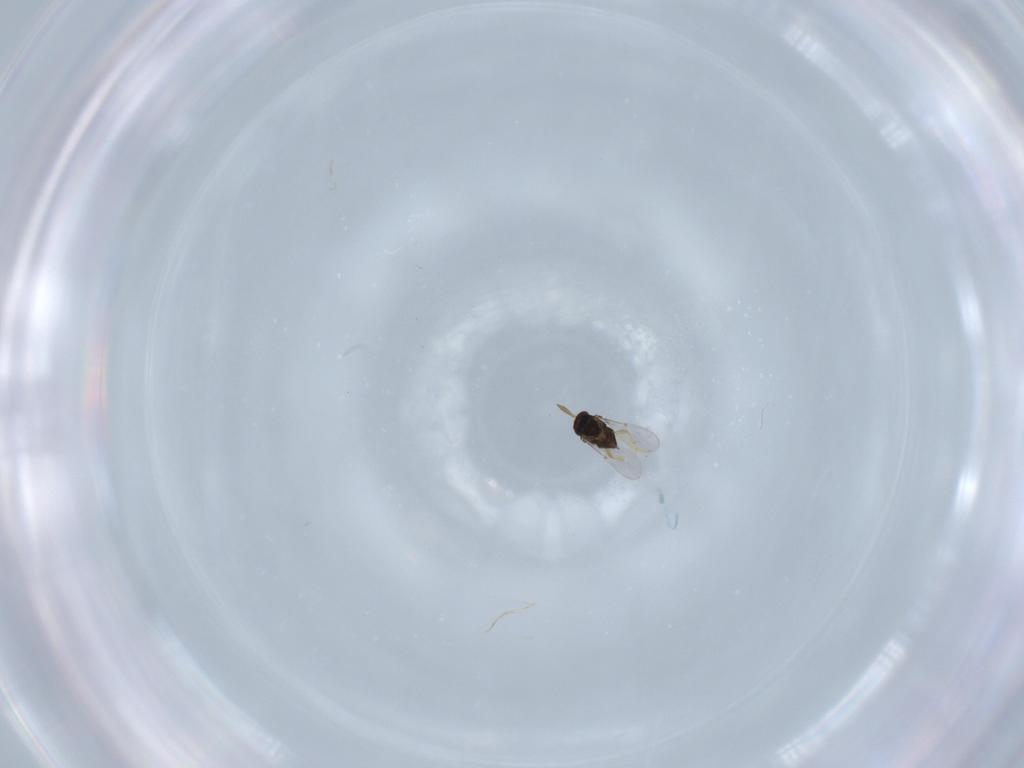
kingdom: Animalia
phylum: Arthropoda
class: Insecta
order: Hymenoptera
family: Encyrtidae
